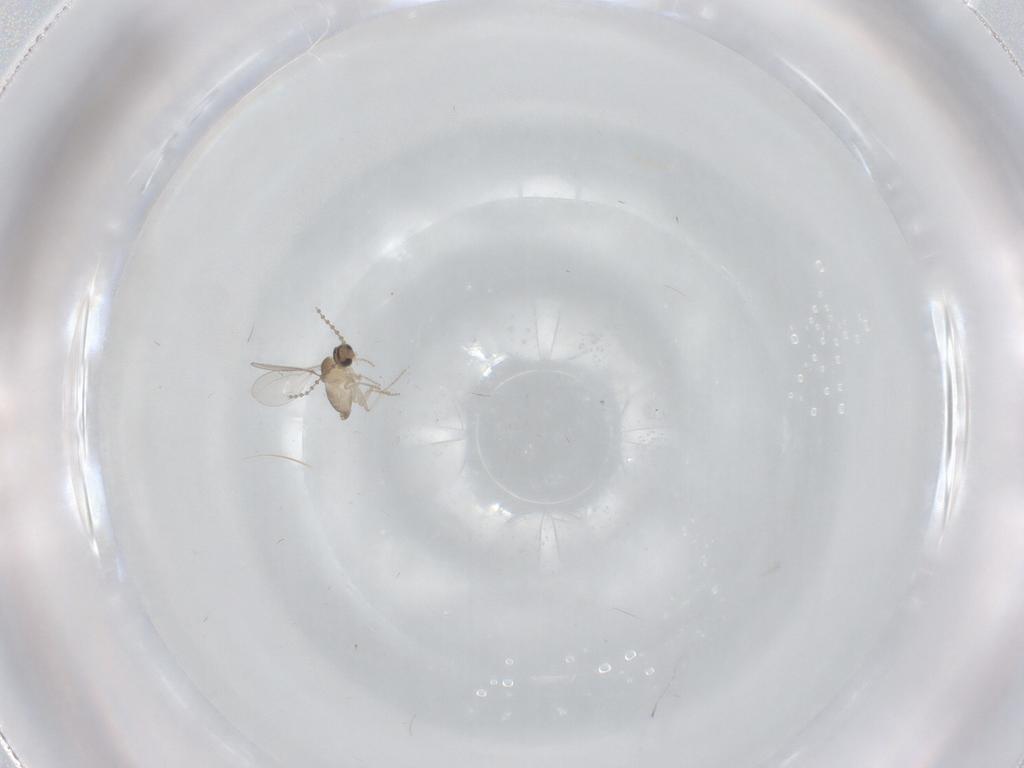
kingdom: Animalia
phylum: Arthropoda
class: Insecta
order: Diptera
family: Cecidomyiidae
